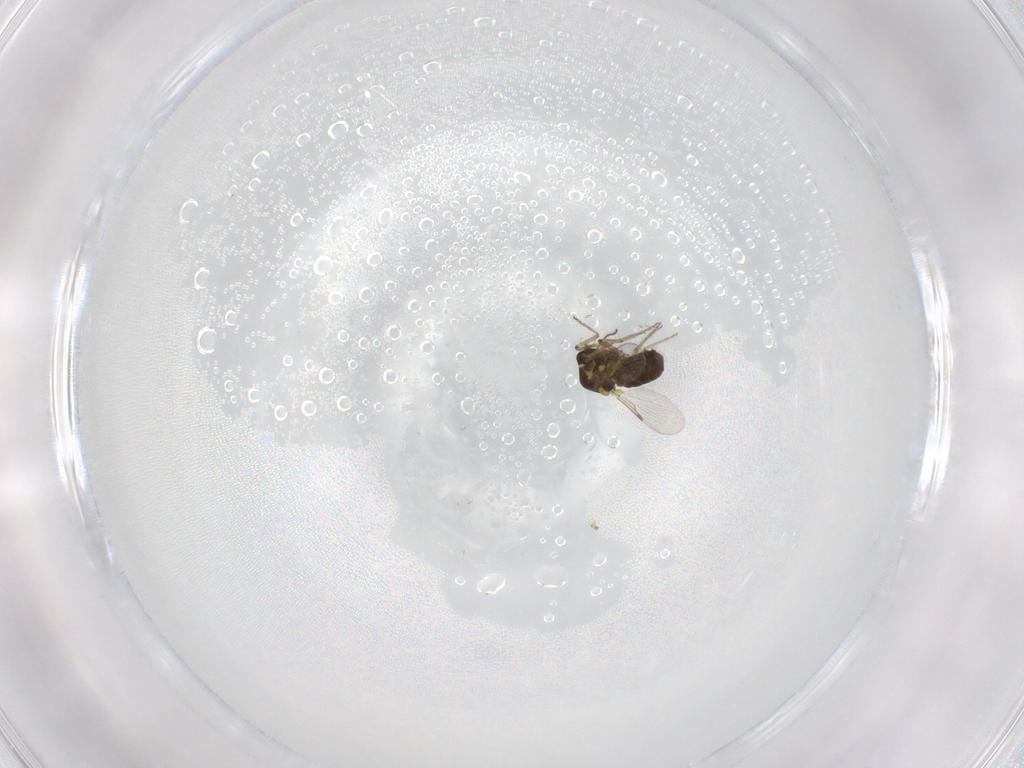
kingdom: Animalia
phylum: Arthropoda
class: Insecta
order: Diptera
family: Ceratopogonidae
